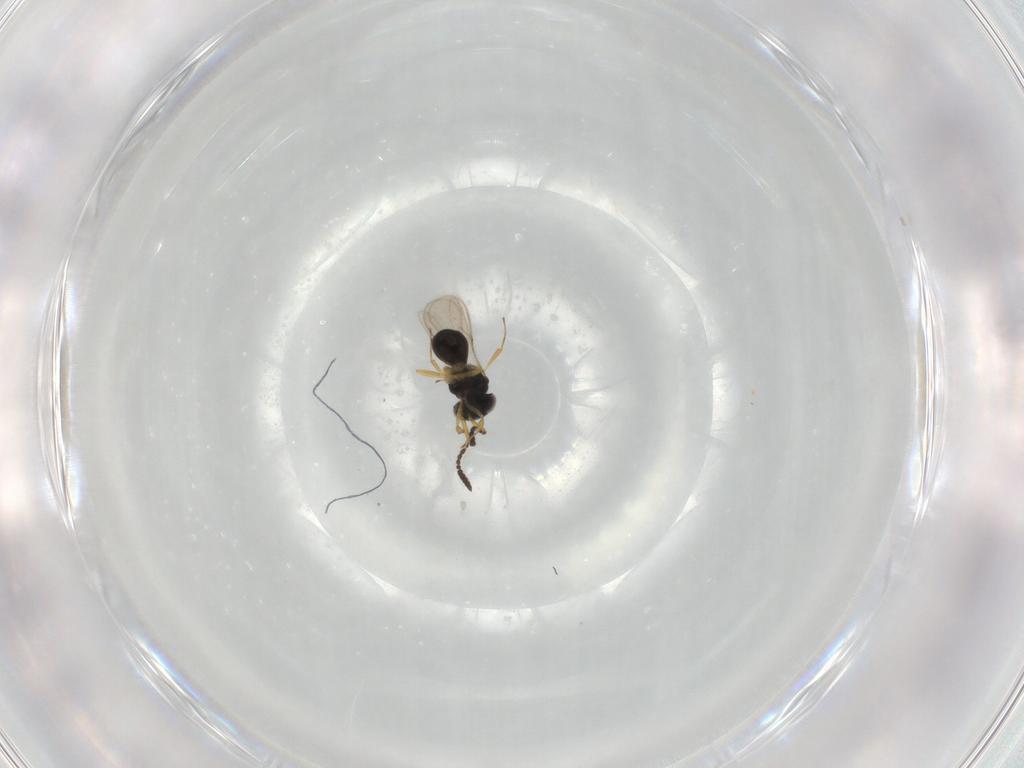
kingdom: Animalia
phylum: Arthropoda
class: Insecta
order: Hymenoptera
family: Scelionidae
